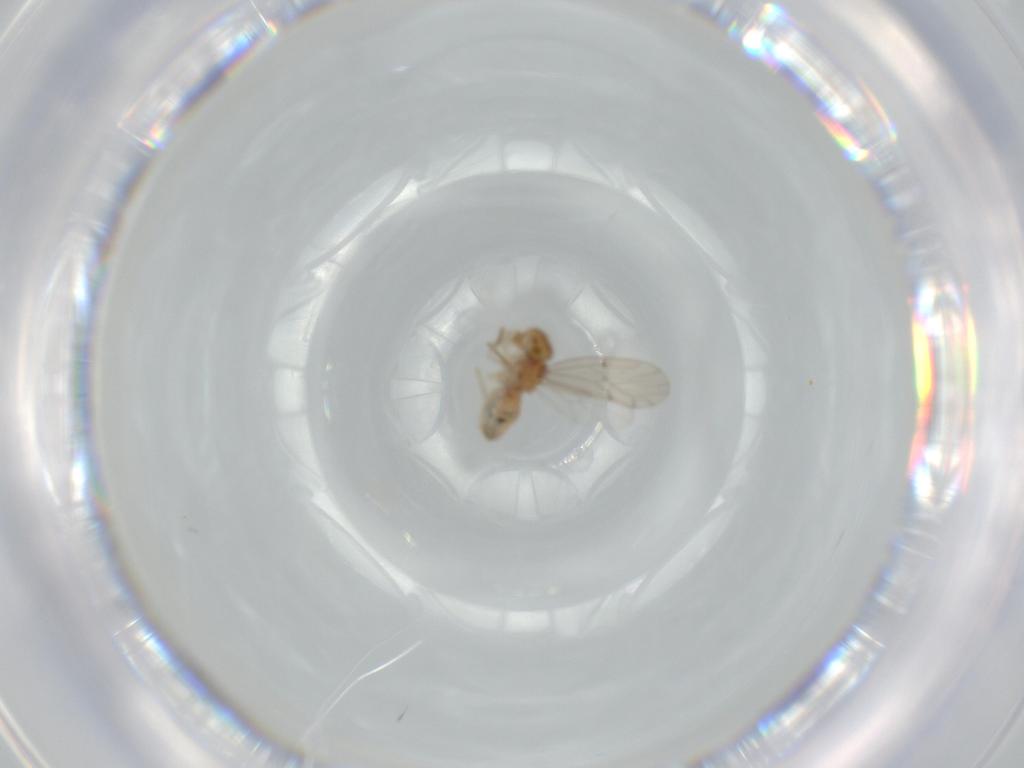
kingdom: Animalia
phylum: Arthropoda
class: Insecta
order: Psocodea
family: Ectopsocidae
